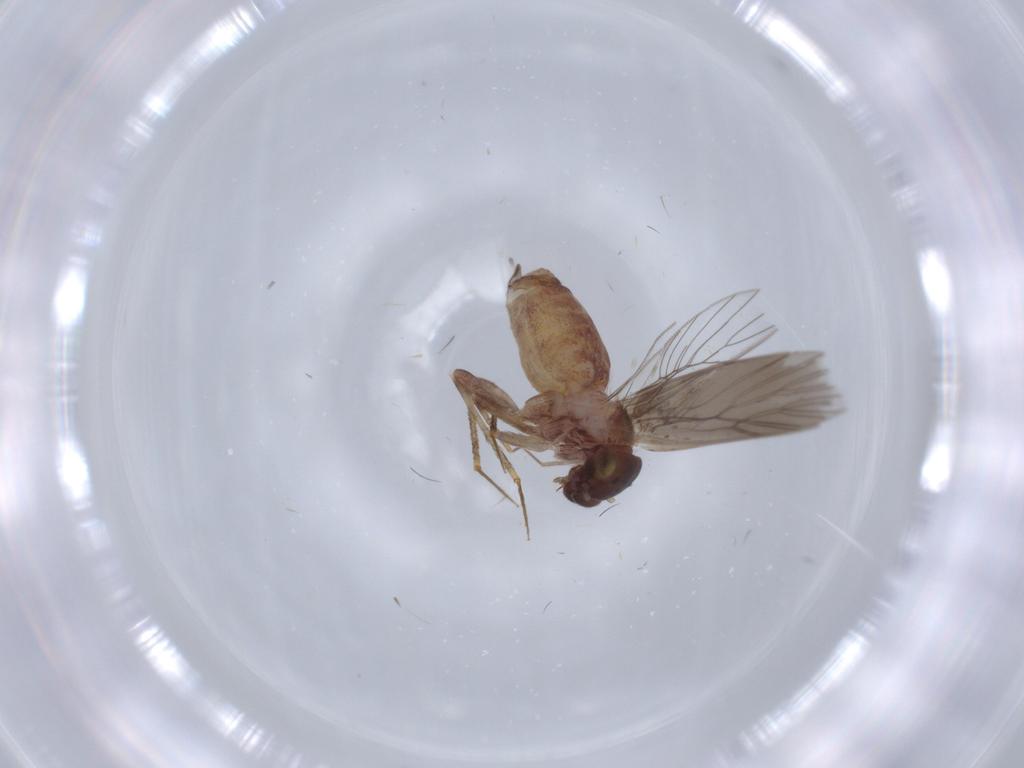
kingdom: Animalia
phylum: Arthropoda
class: Insecta
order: Psocodea
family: Lepidopsocidae
